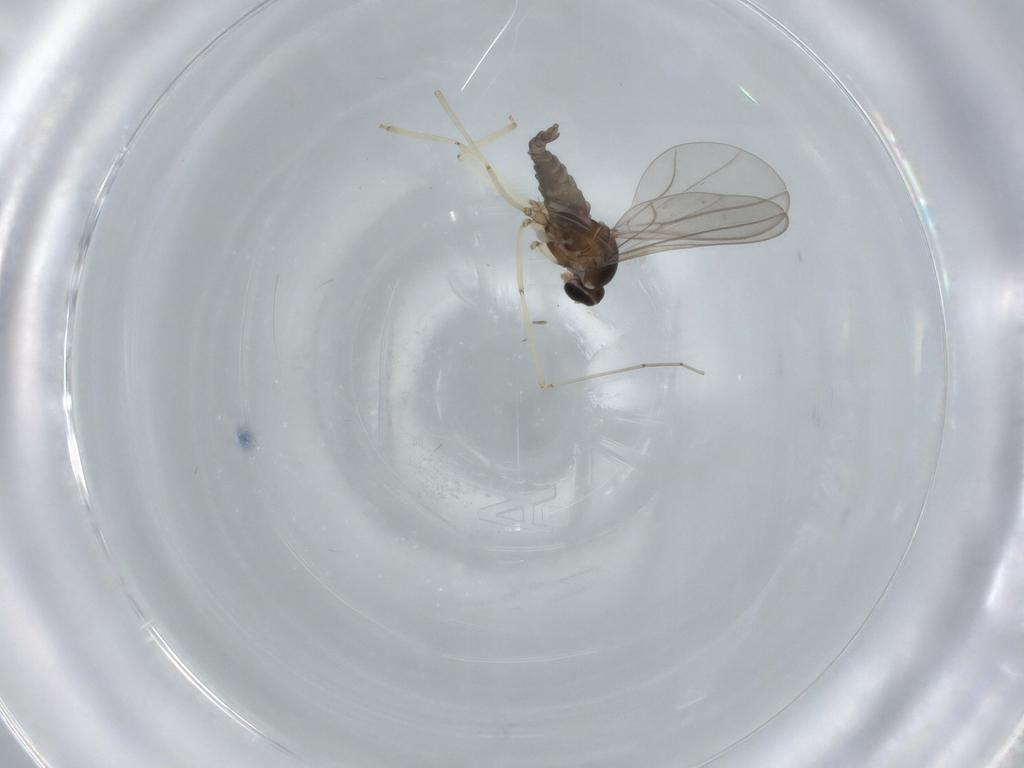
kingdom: Animalia
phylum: Arthropoda
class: Insecta
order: Diptera
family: Cecidomyiidae
